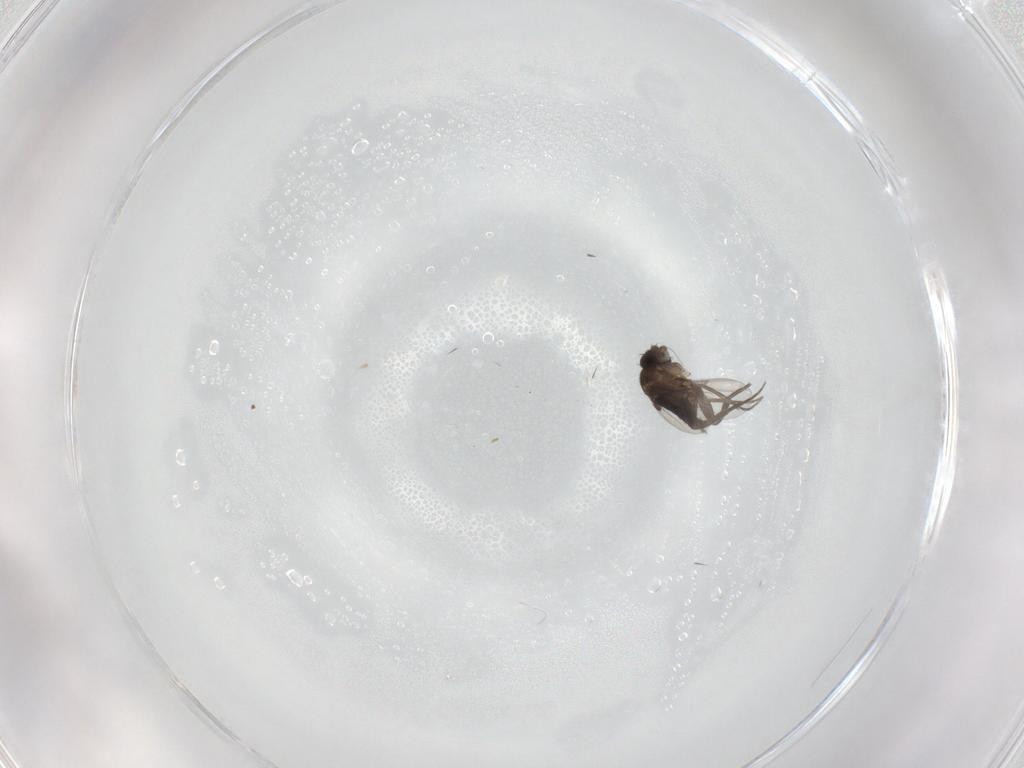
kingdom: Animalia
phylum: Arthropoda
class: Insecta
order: Diptera
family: Phoridae
